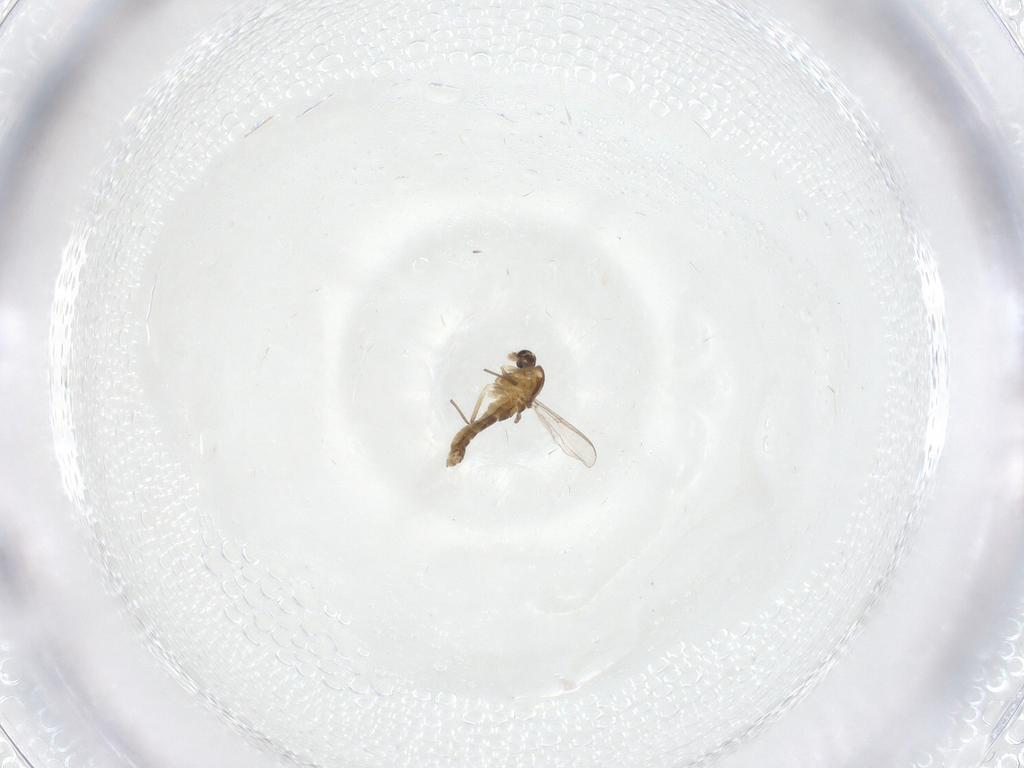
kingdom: Animalia
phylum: Arthropoda
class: Insecta
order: Diptera
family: Chironomidae
